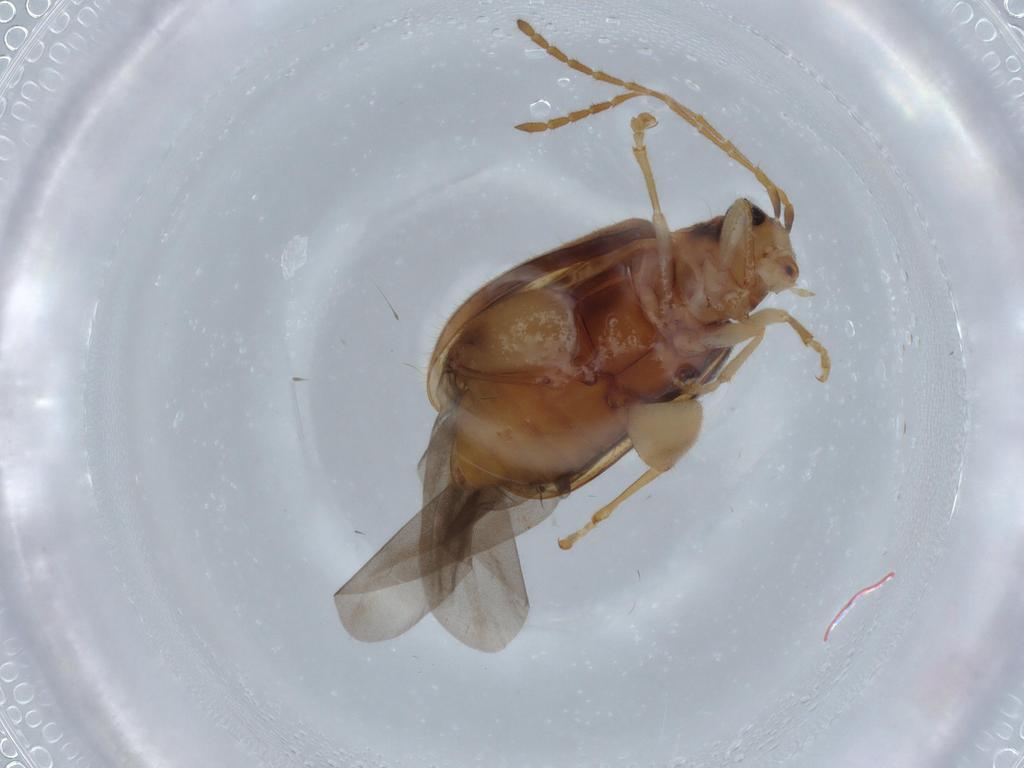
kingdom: Animalia
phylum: Arthropoda
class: Insecta
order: Coleoptera
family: Chrysomelidae
